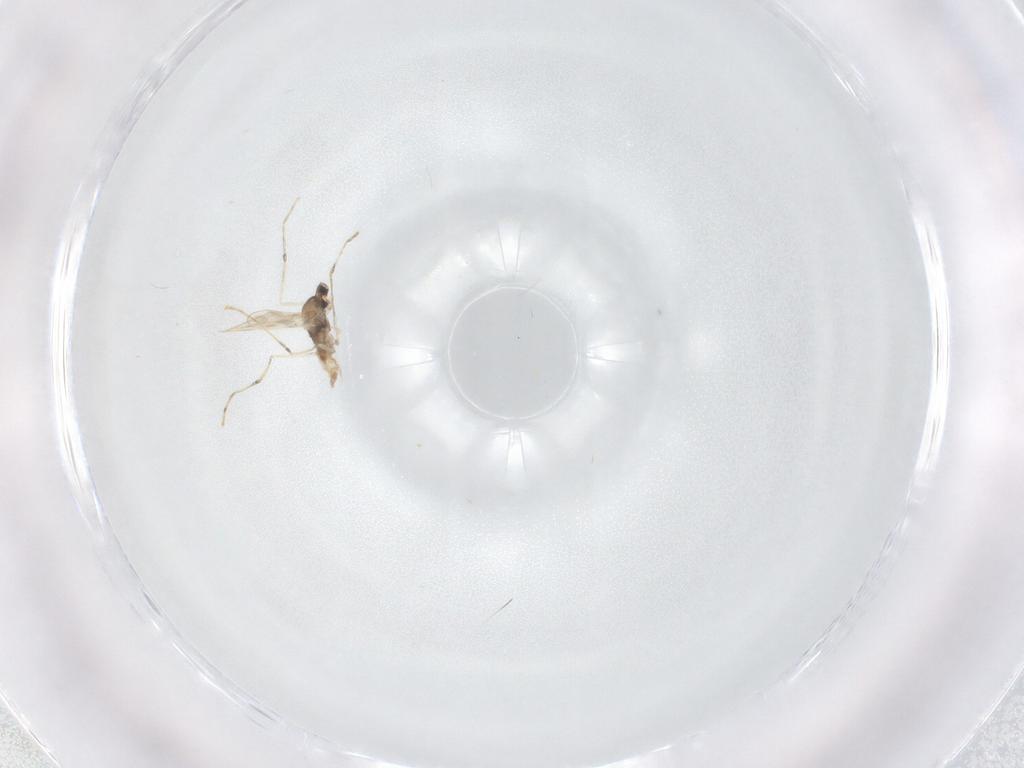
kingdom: Animalia
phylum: Arthropoda
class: Insecta
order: Diptera
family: Cecidomyiidae
